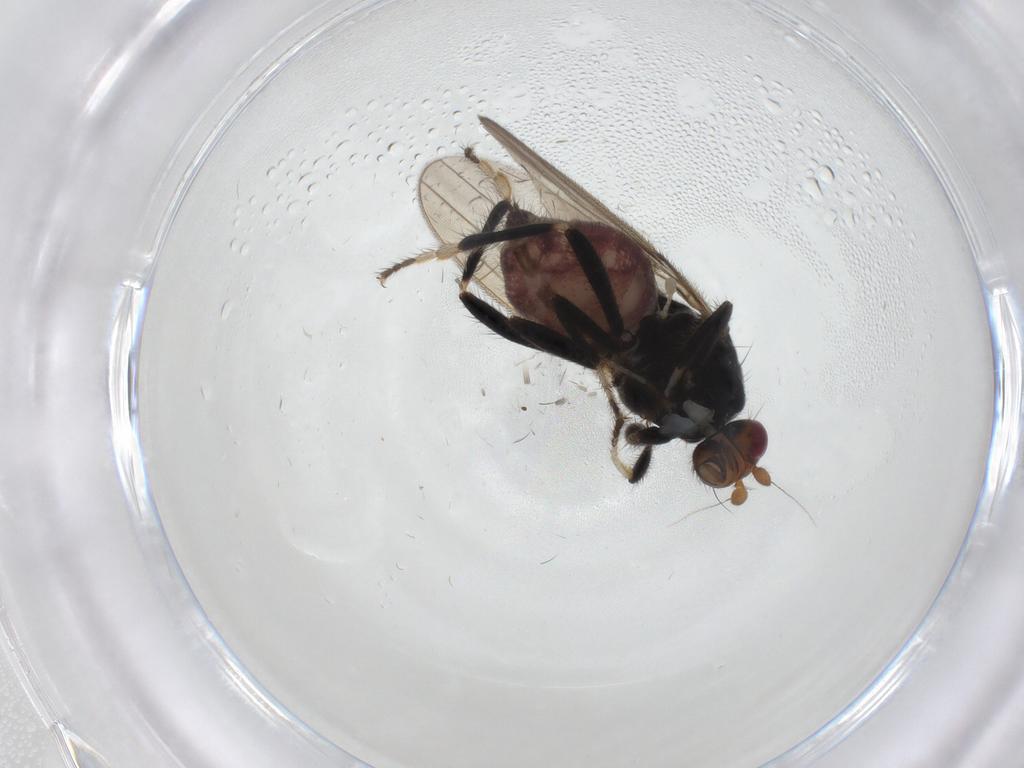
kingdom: Animalia
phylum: Arthropoda
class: Insecta
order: Diptera
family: Sphaeroceridae
